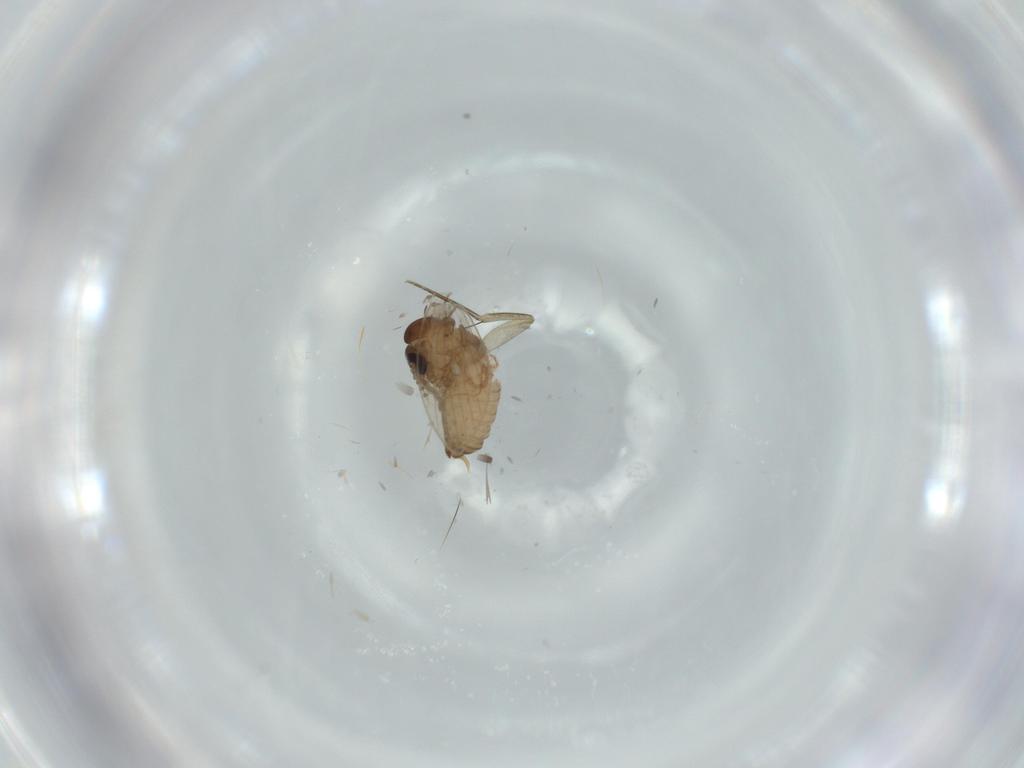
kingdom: Animalia
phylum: Arthropoda
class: Insecta
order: Diptera
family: Psychodidae
